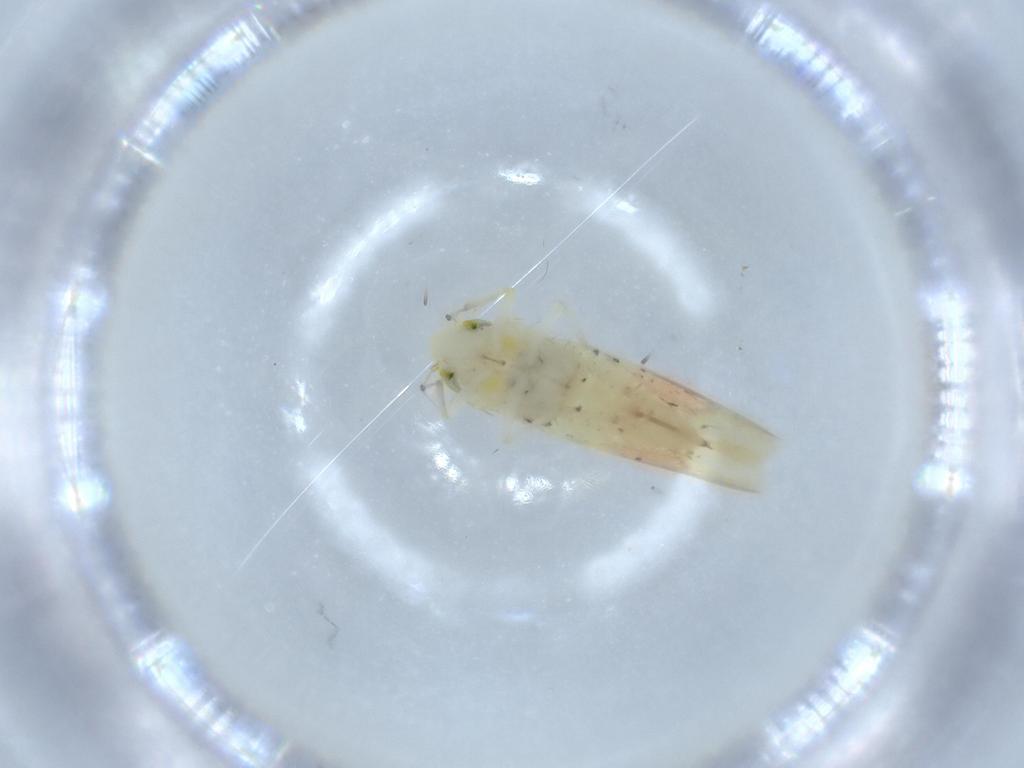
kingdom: Animalia
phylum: Arthropoda
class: Insecta
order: Hemiptera
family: Cicadellidae
